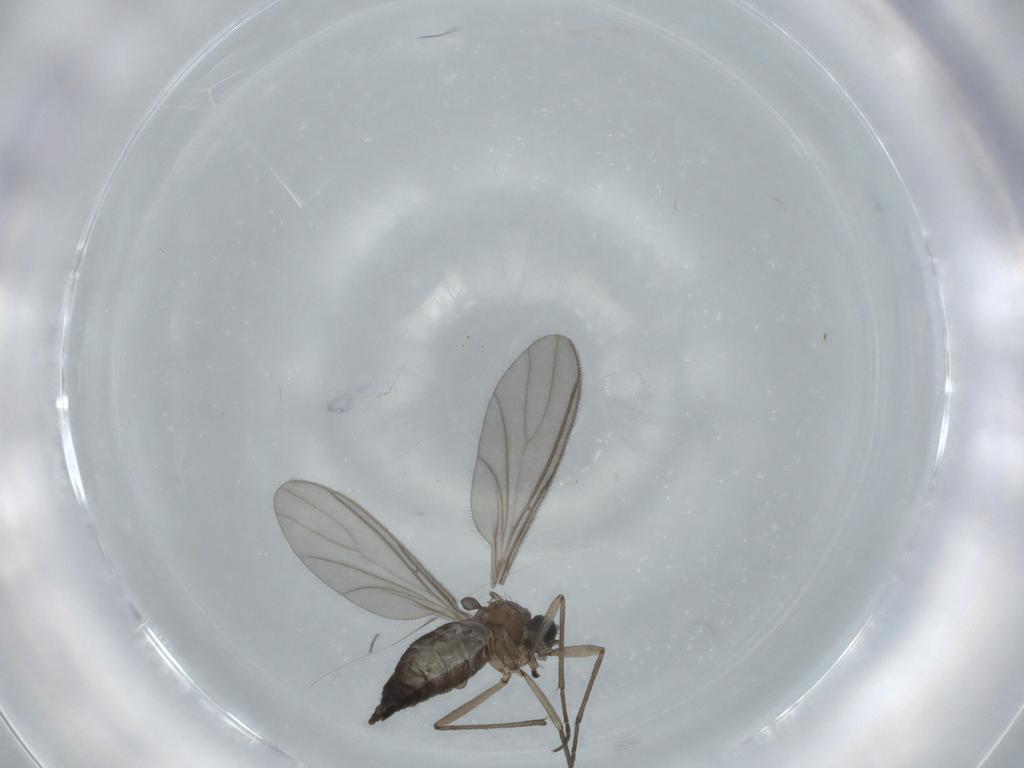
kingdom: Animalia
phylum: Arthropoda
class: Insecta
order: Diptera
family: Sciaridae
